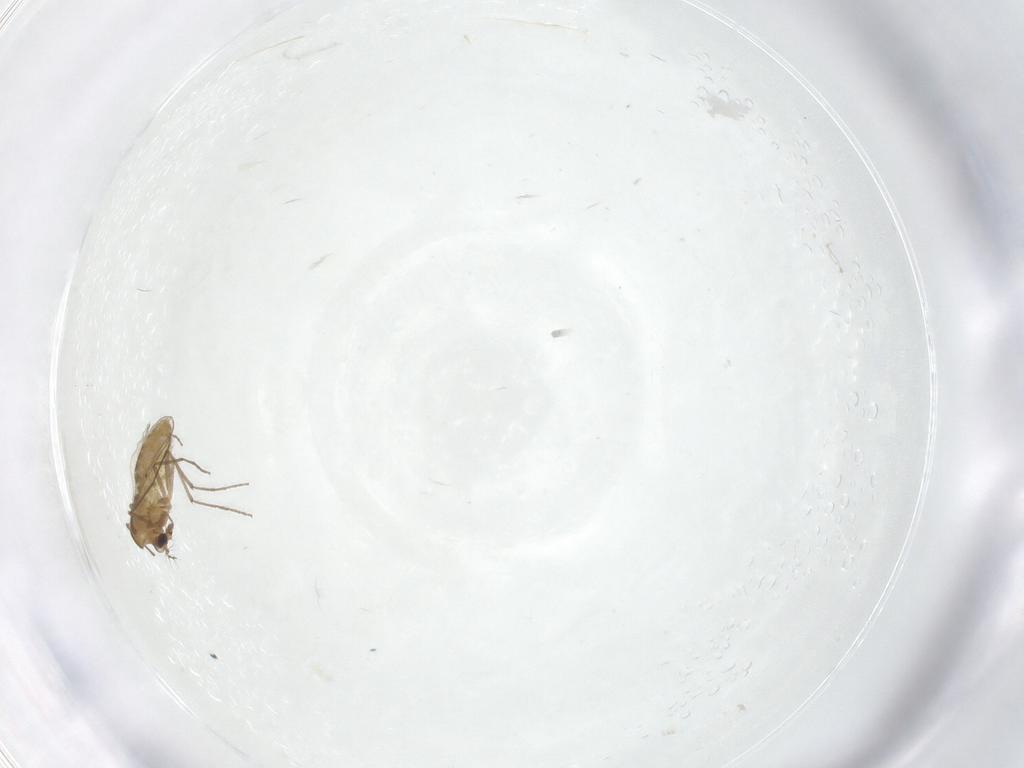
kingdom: Animalia
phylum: Arthropoda
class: Insecta
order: Diptera
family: Chironomidae
